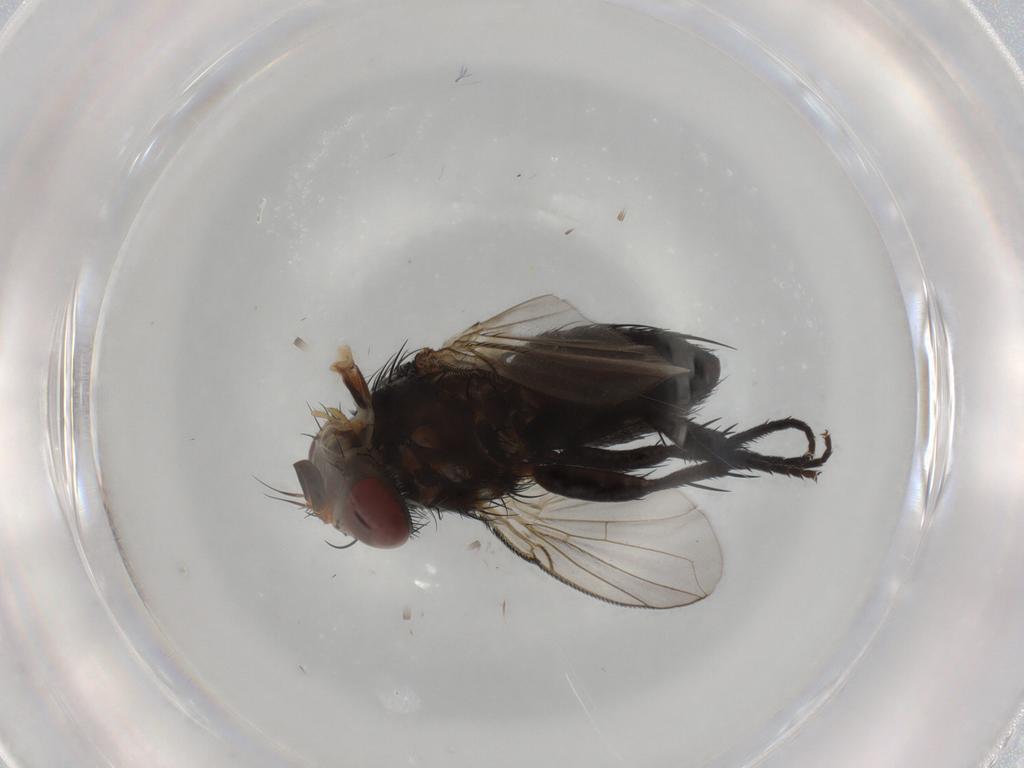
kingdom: Animalia
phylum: Arthropoda
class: Insecta
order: Diptera
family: Tachinidae
